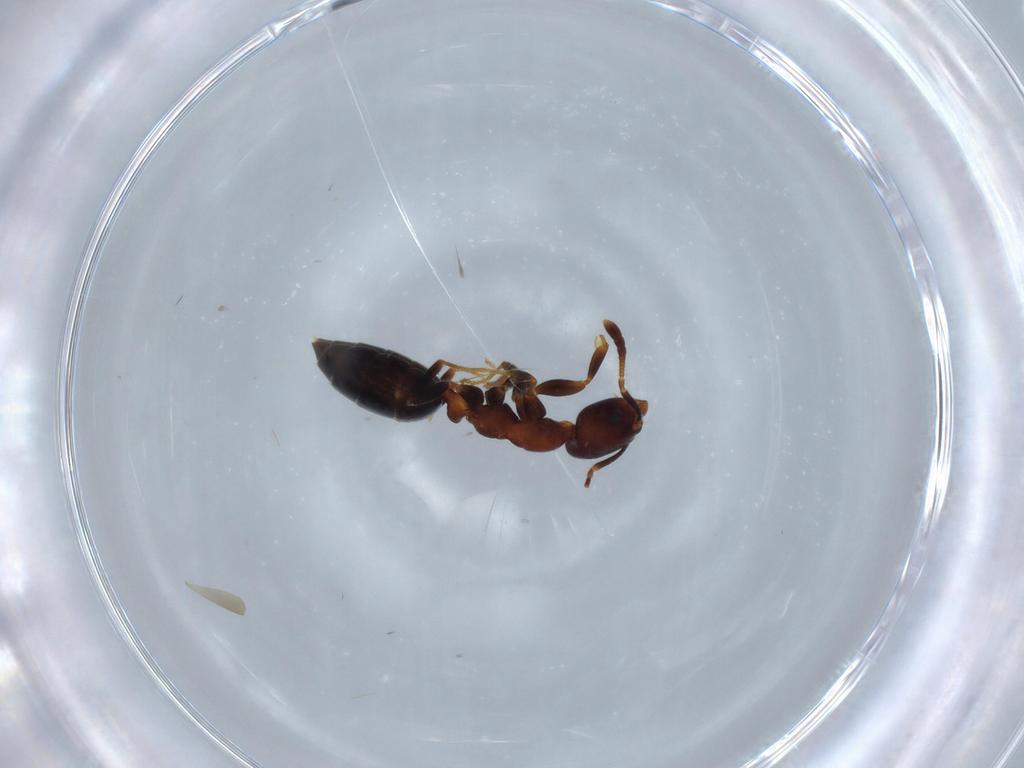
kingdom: Animalia
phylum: Arthropoda
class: Insecta
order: Hymenoptera
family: Formicidae
